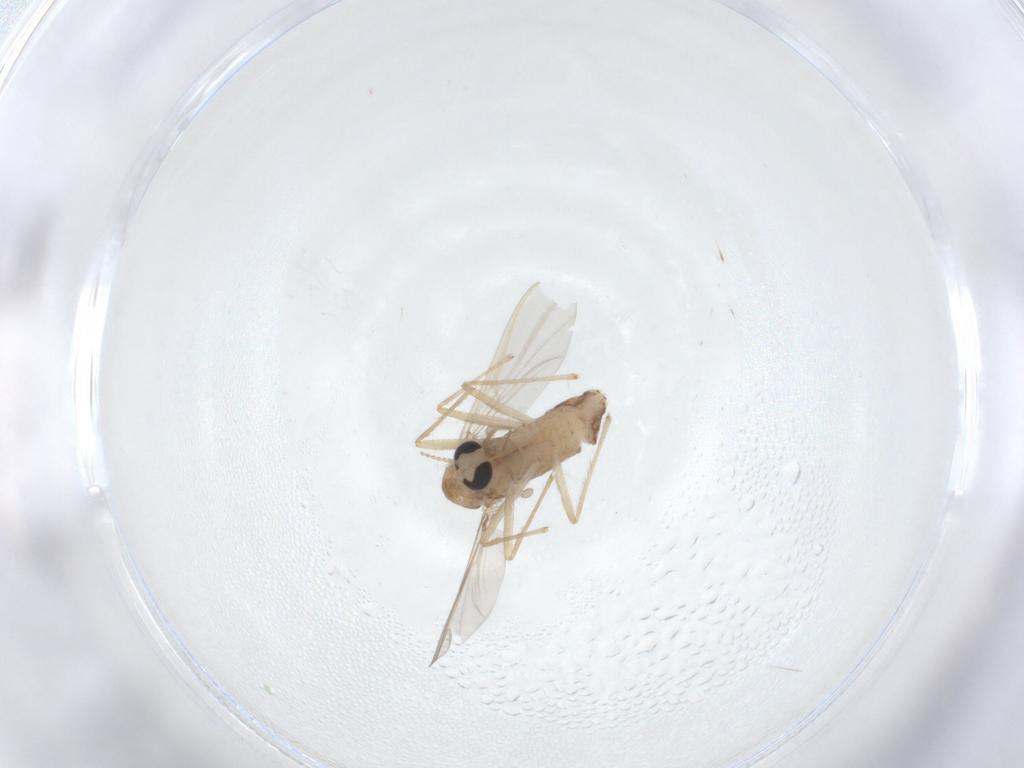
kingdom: Animalia
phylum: Arthropoda
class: Insecta
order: Diptera
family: Chironomidae
